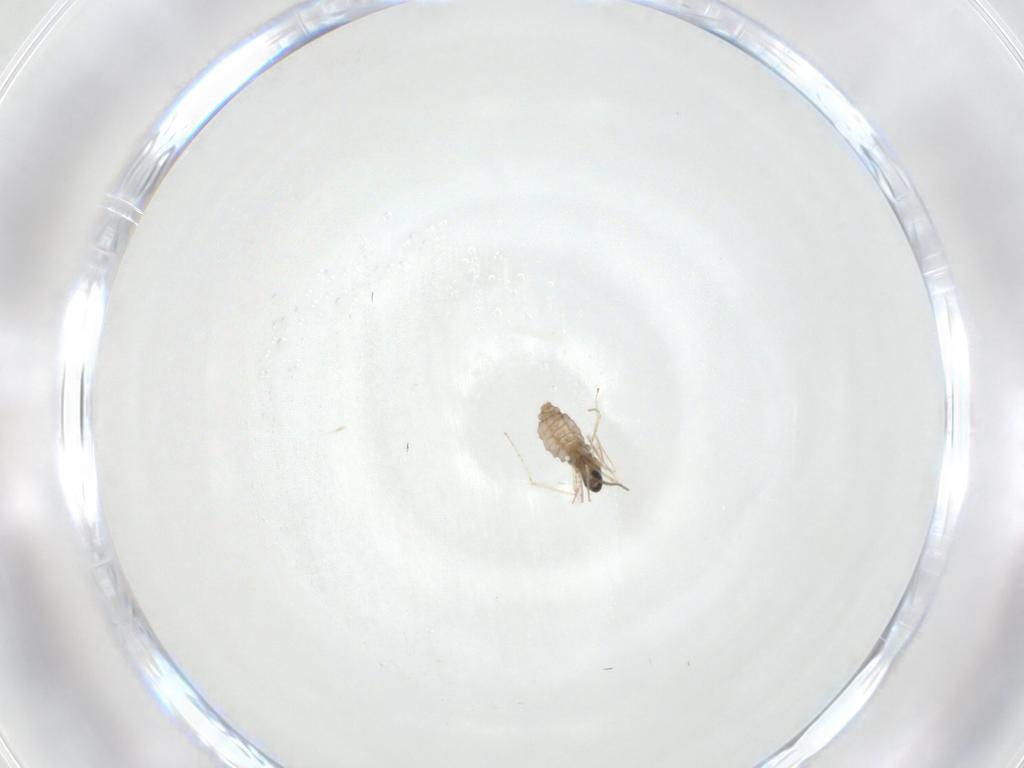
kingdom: Animalia
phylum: Arthropoda
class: Insecta
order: Diptera
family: Cecidomyiidae
